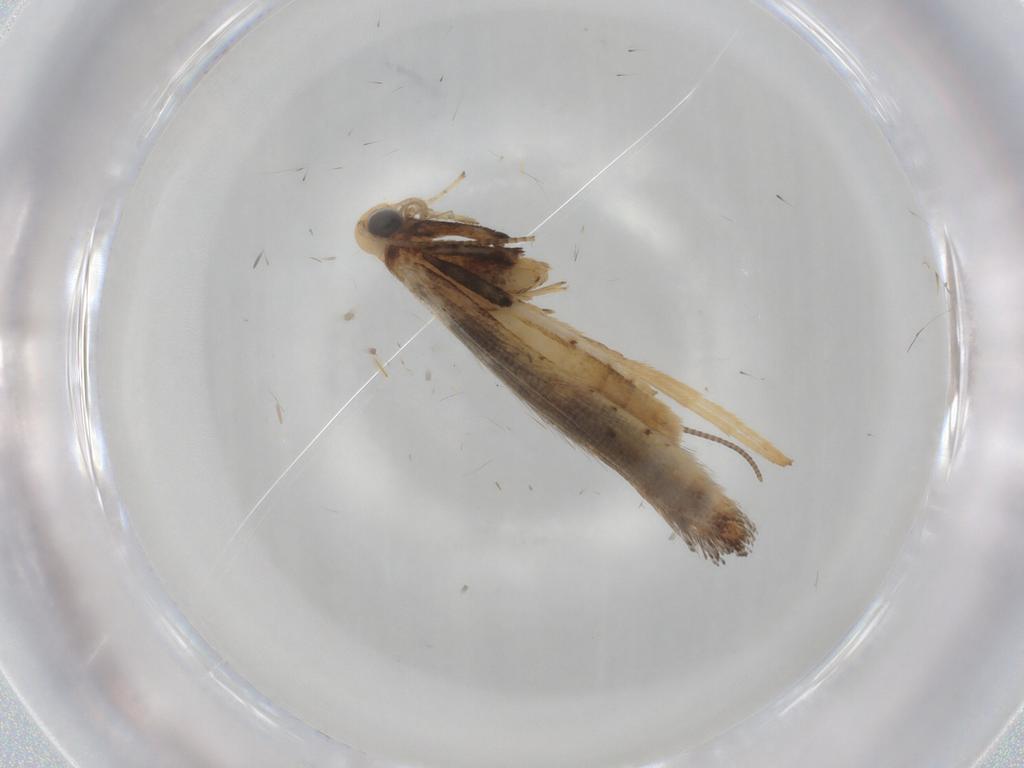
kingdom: Animalia
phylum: Arthropoda
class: Insecta
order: Lepidoptera
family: Gracillariidae
